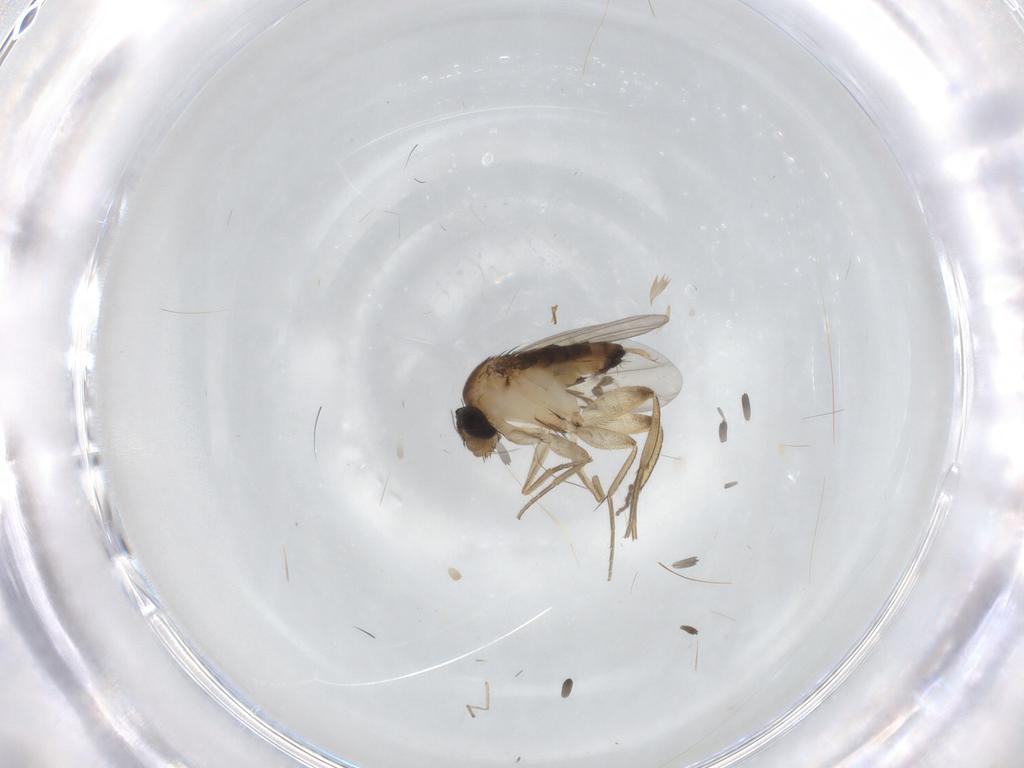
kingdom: Animalia
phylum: Arthropoda
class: Insecta
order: Diptera
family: Phoridae
